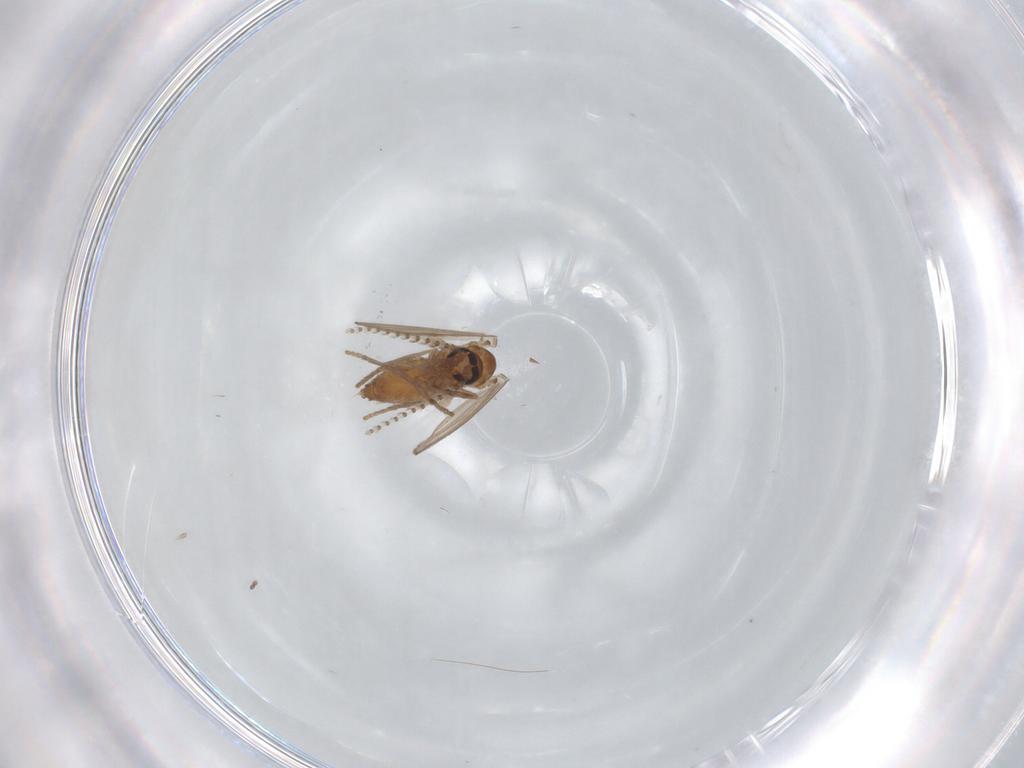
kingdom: Animalia
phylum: Arthropoda
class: Insecta
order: Diptera
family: Psychodidae
